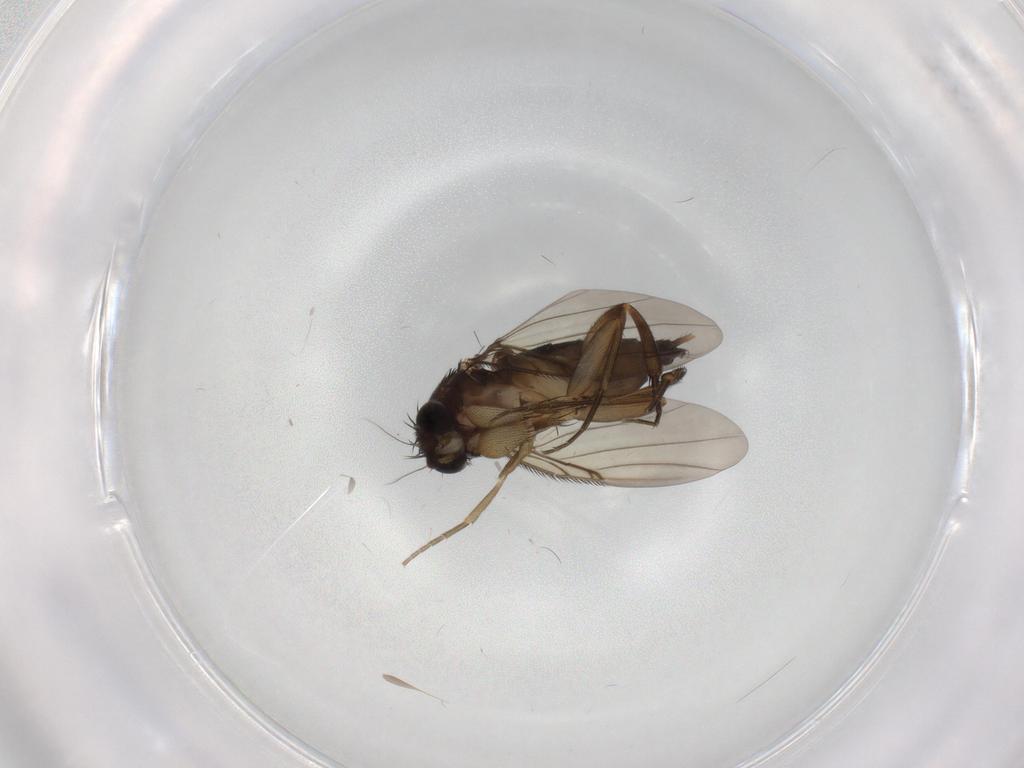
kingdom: Animalia
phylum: Arthropoda
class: Insecta
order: Diptera
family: Phoridae
